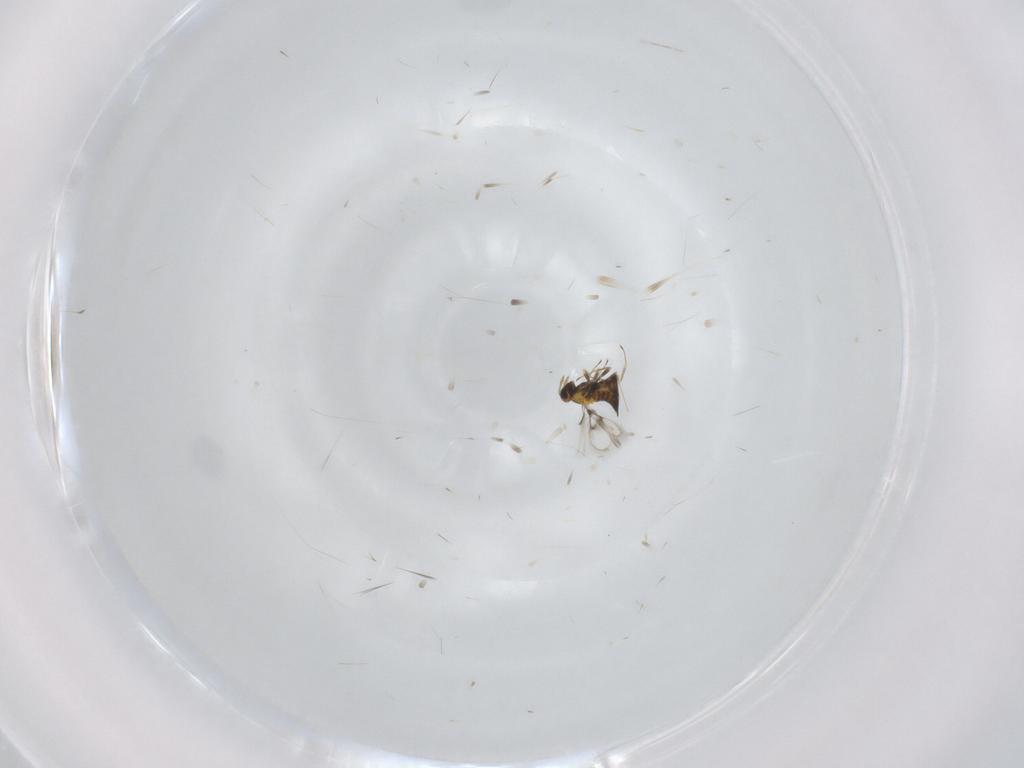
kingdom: Animalia
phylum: Arthropoda
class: Insecta
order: Hymenoptera
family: Trichogrammatidae
